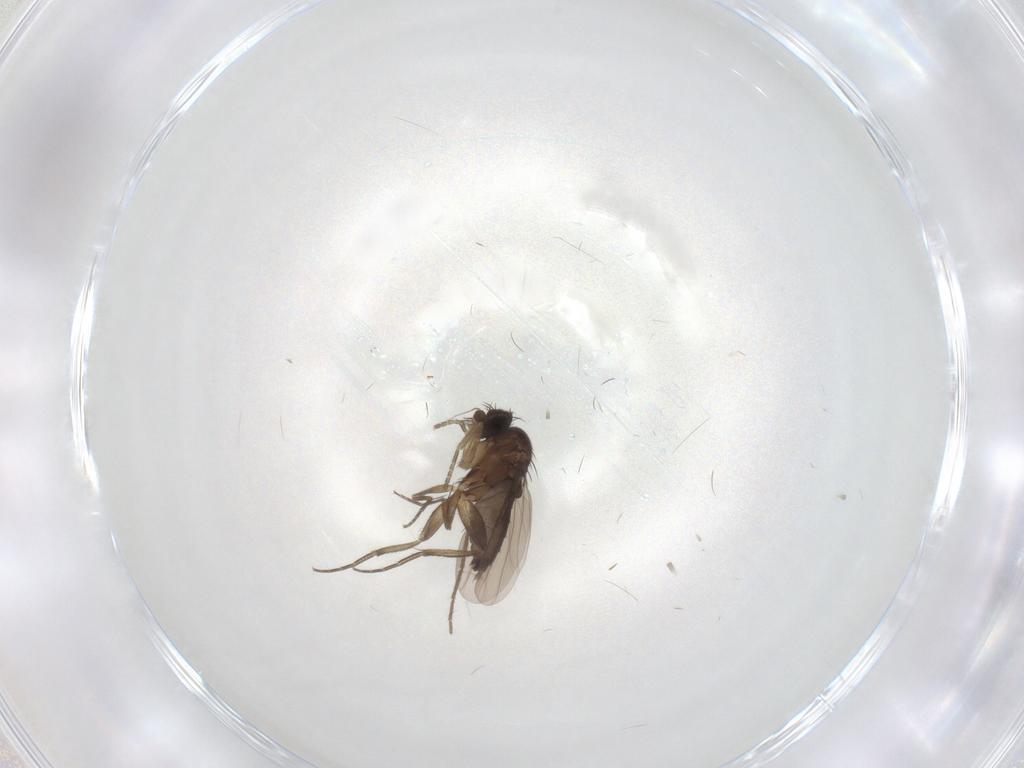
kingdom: Animalia
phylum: Arthropoda
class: Insecta
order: Diptera
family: Phoridae
